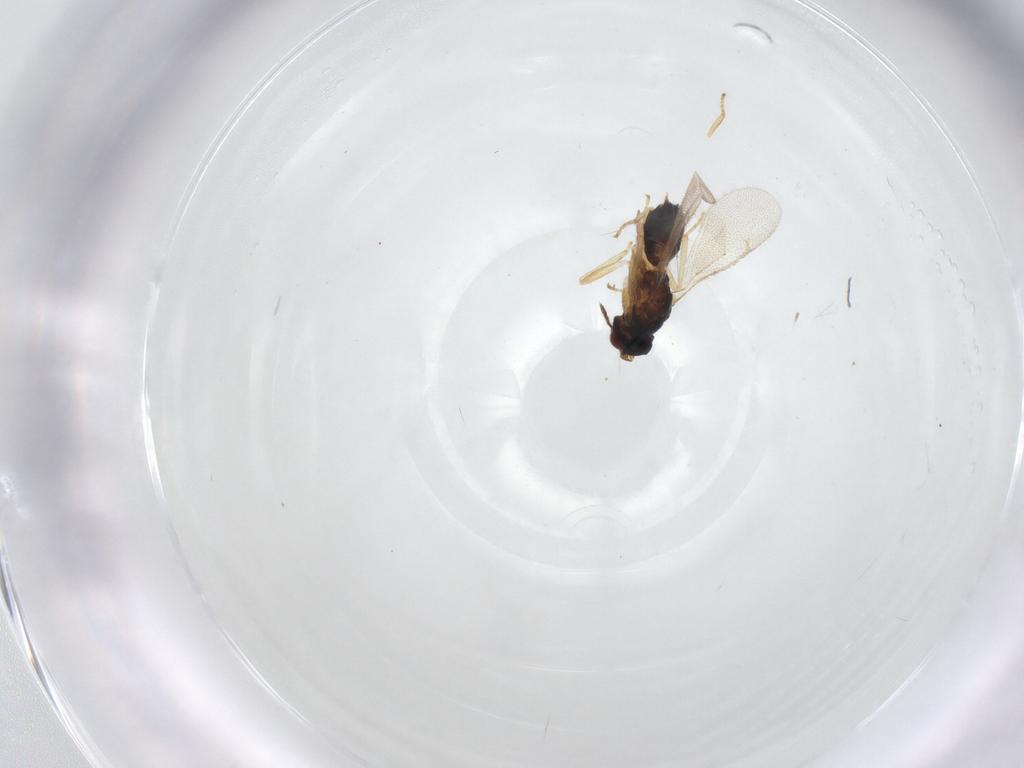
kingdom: Animalia
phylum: Arthropoda
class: Insecta
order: Hymenoptera
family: Eulophidae
